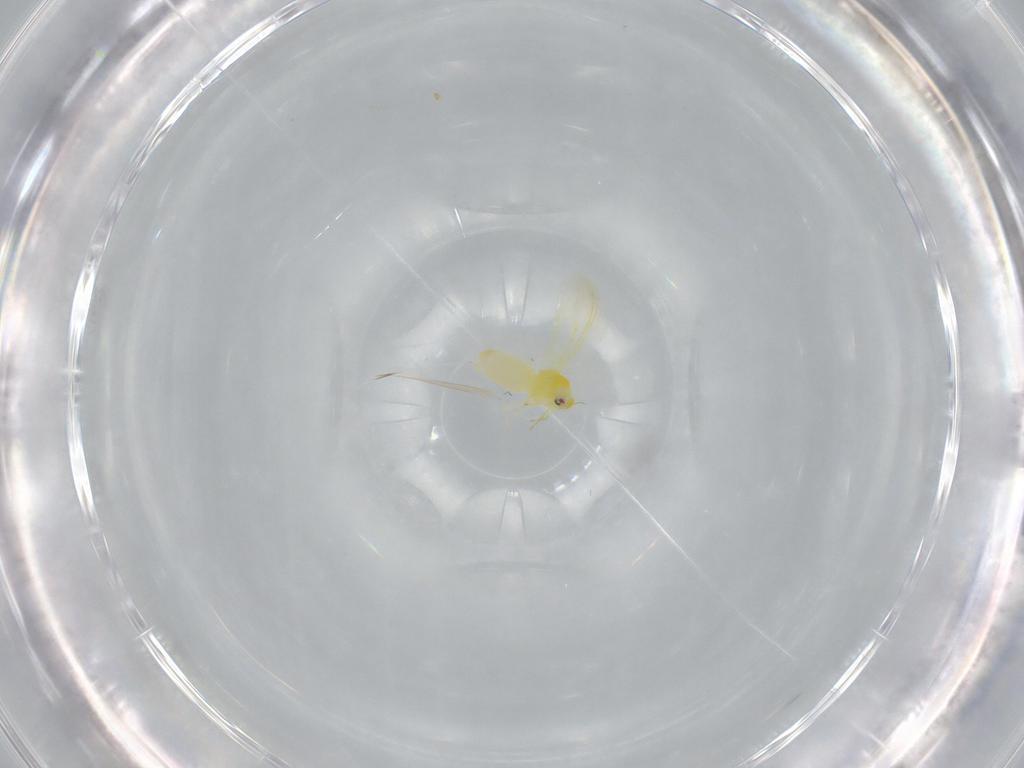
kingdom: Animalia
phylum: Arthropoda
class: Insecta
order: Hemiptera
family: Aleyrodidae
